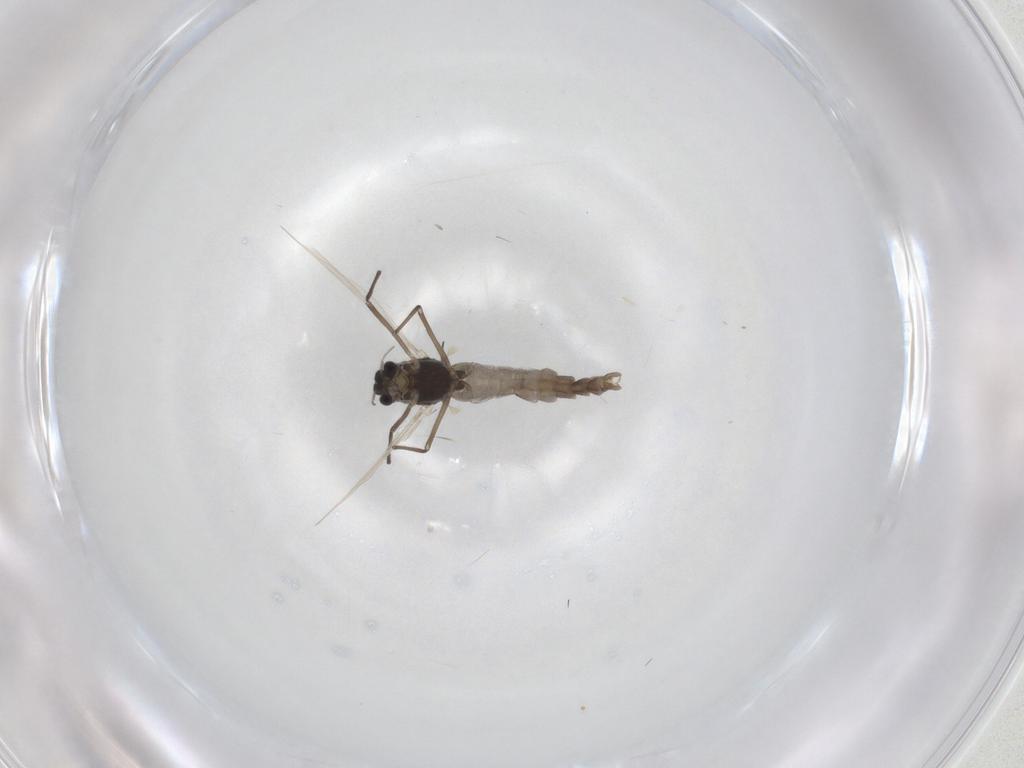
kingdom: Animalia
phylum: Arthropoda
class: Insecta
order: Diptera
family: Chironomidae
